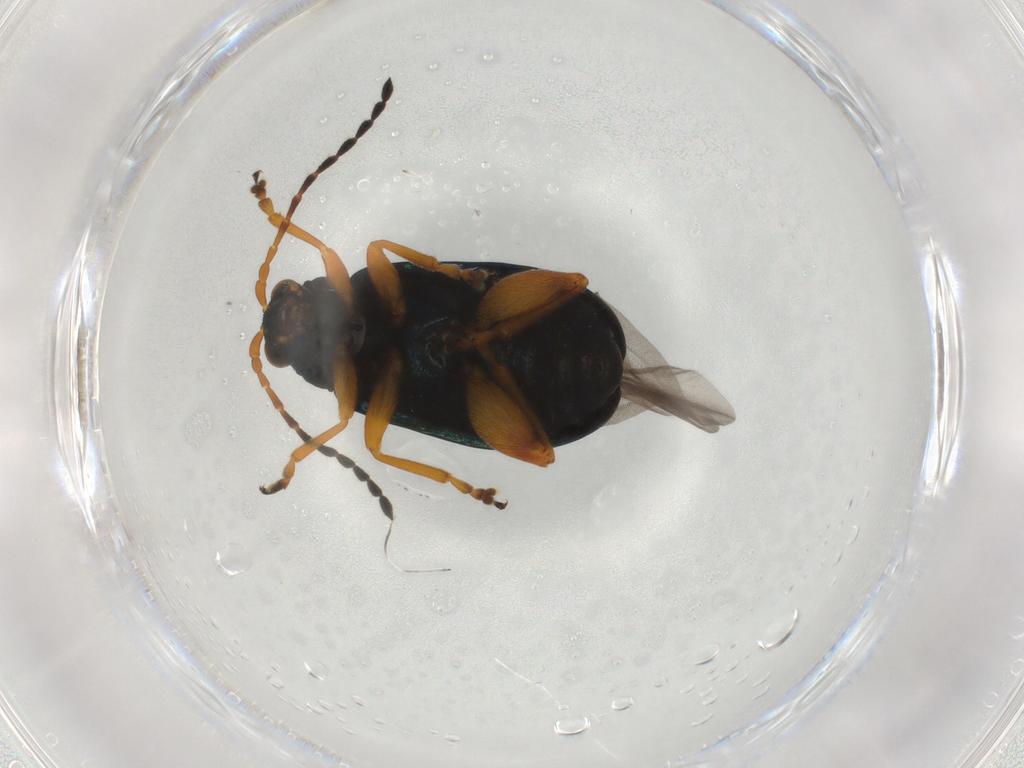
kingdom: Animalia
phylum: Arthropoda
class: Insecta
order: Coleoptera
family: Chrysomelidae
